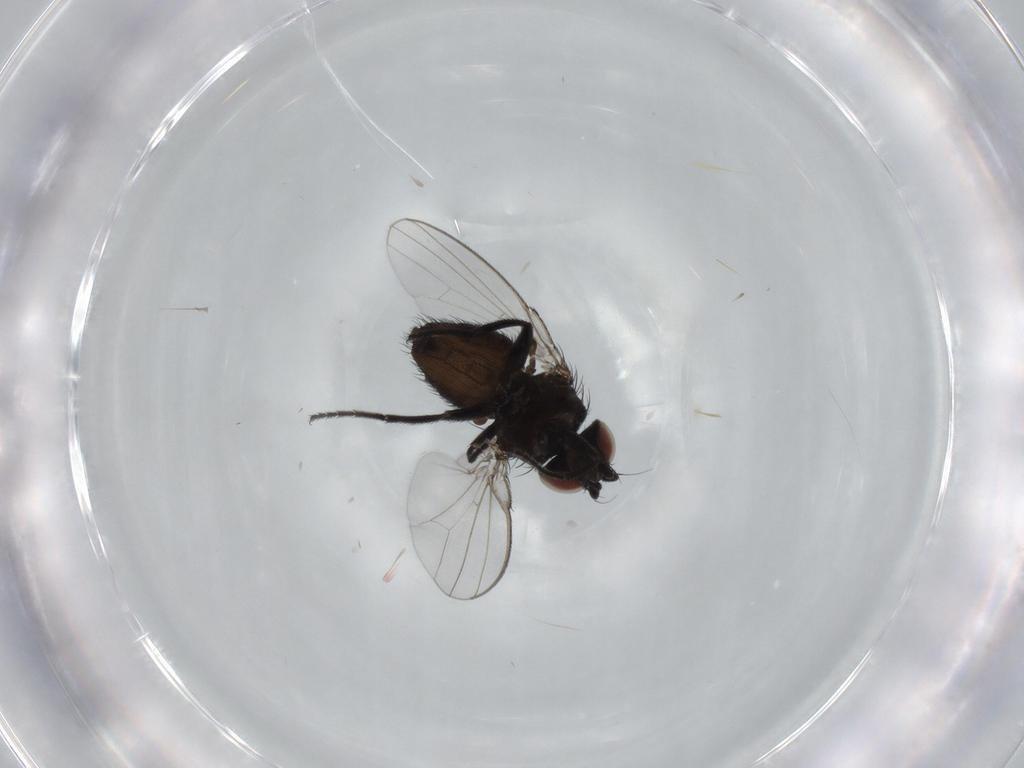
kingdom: Animalia
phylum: Arthropoda
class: Insecta
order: Diptera
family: Milichiidae
